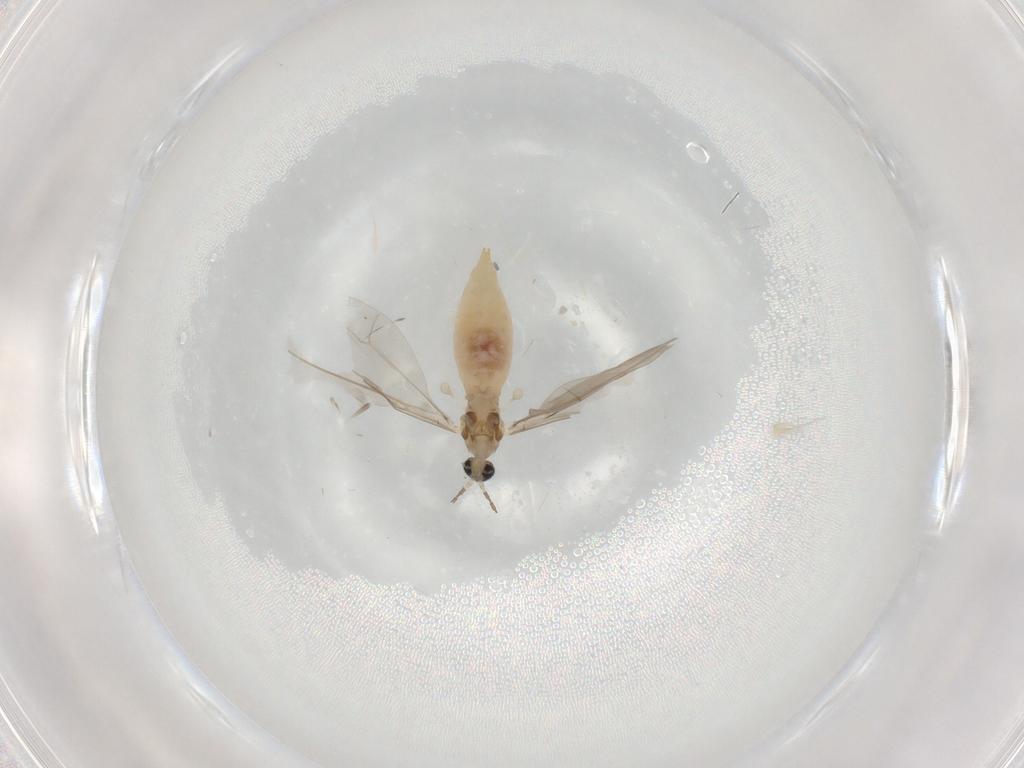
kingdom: Animalia
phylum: Arthropoda
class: Insecta
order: Diptera
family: Cecidomyiidae
